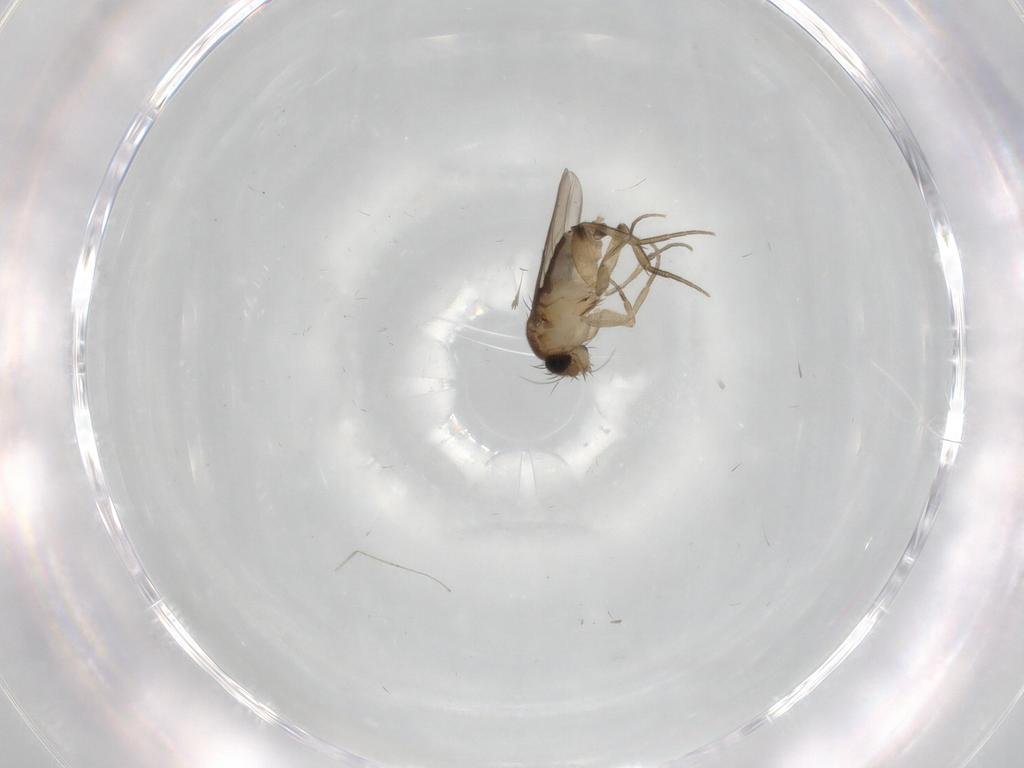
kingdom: Animalia
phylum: Arthropoda
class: Insecta
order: Diptera
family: Phoridae
